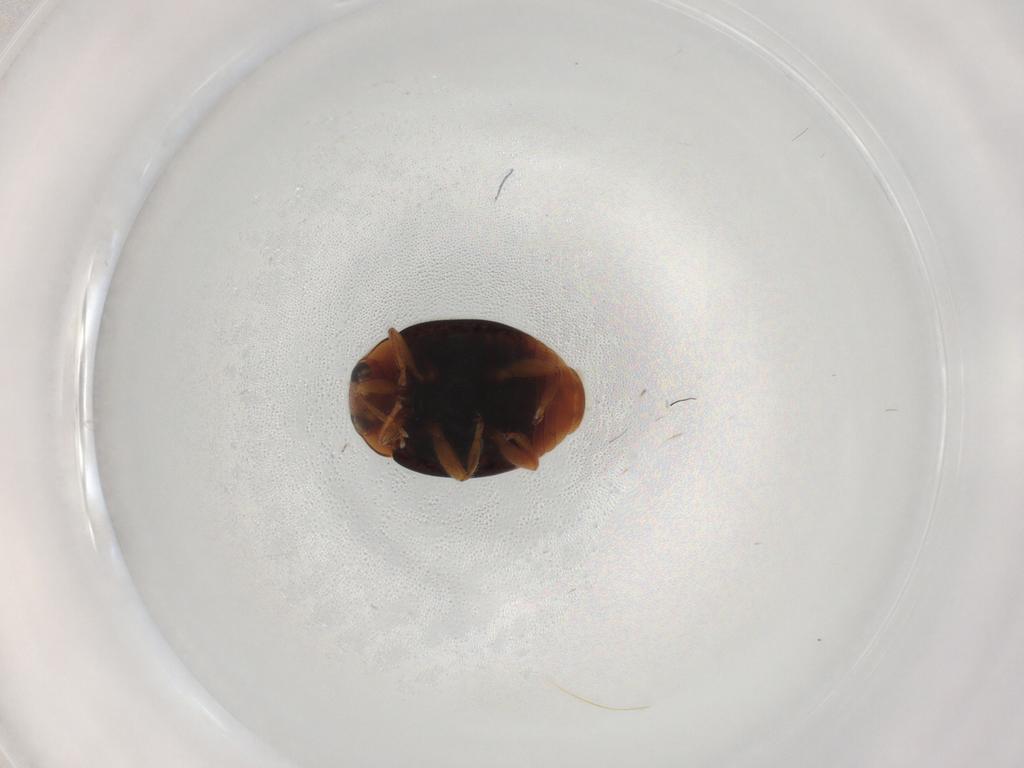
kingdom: Animalia
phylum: Arthropoda
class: Insecta
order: Coleoptera
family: Coccinellidae
